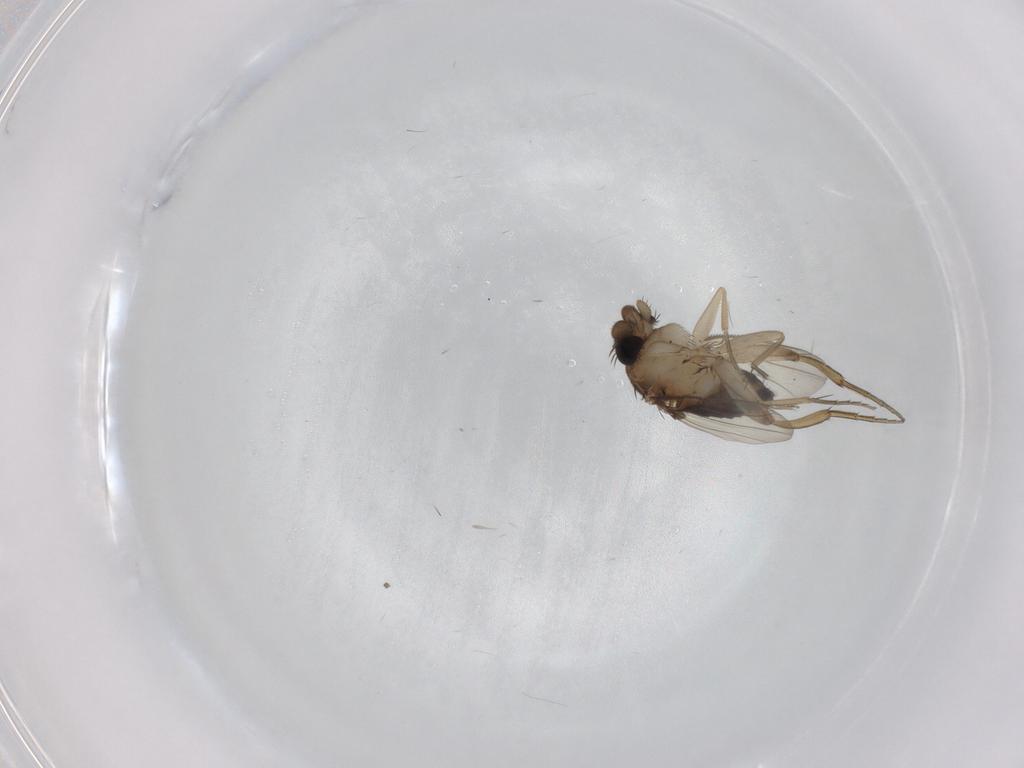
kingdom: Animalia
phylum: Arthropoda
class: Insecta
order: Diptera
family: Phoridae
